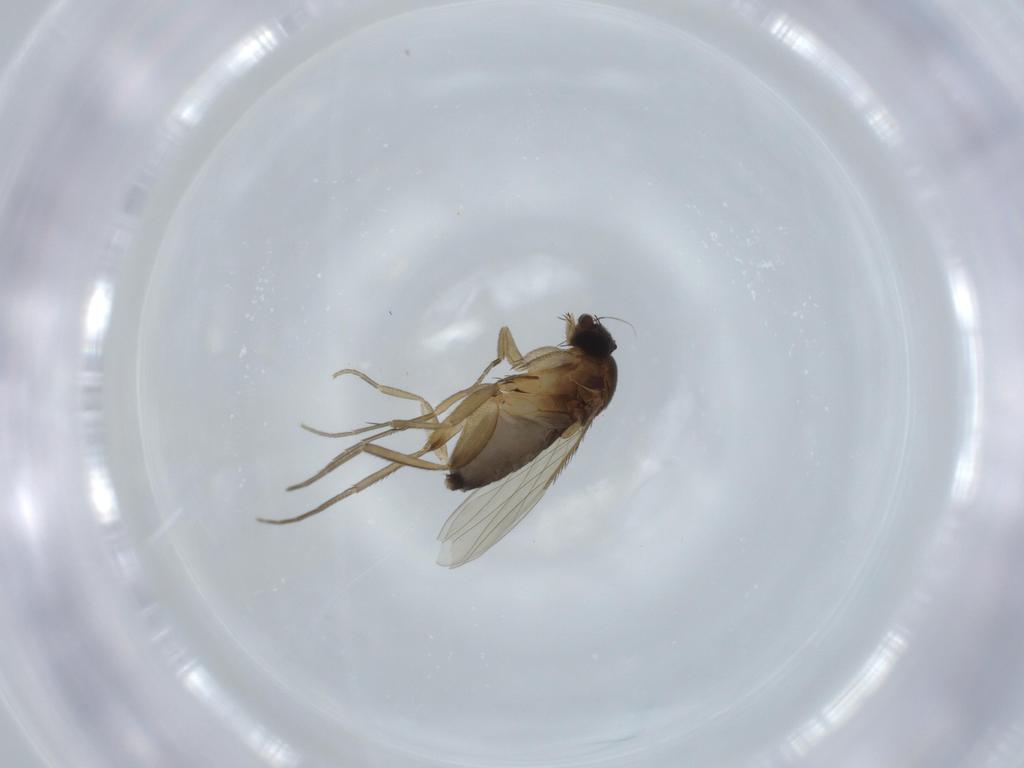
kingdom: Animalia
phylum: Arthropoda
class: Insecta
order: Diptera
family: Phoridae
